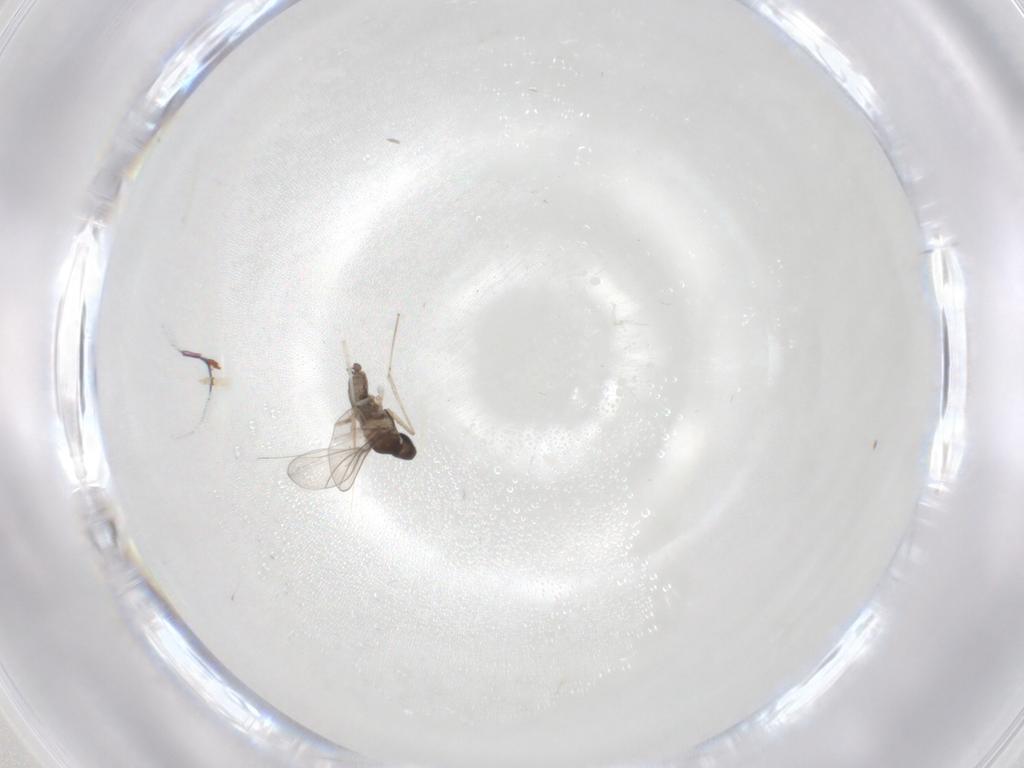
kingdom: Animalia
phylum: Arthropoda
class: Insecta
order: Diptera
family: Cecidomyiidae
